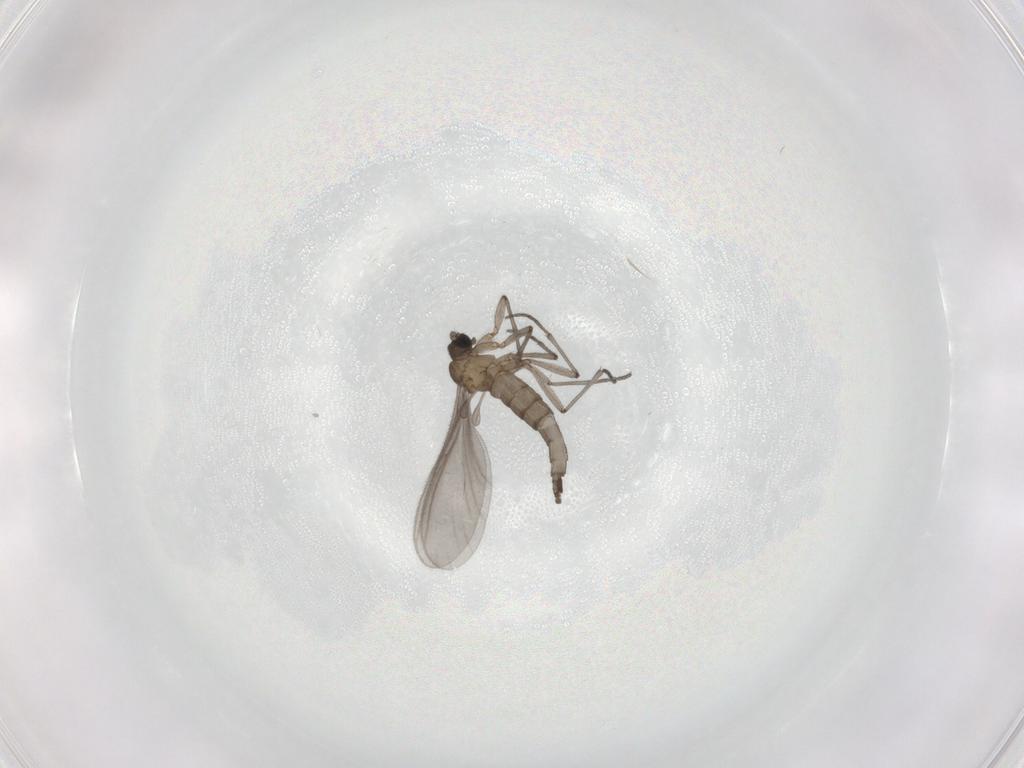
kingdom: Animalia
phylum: Arthropoda
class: Insecta
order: Diptera
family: Sciaridae
